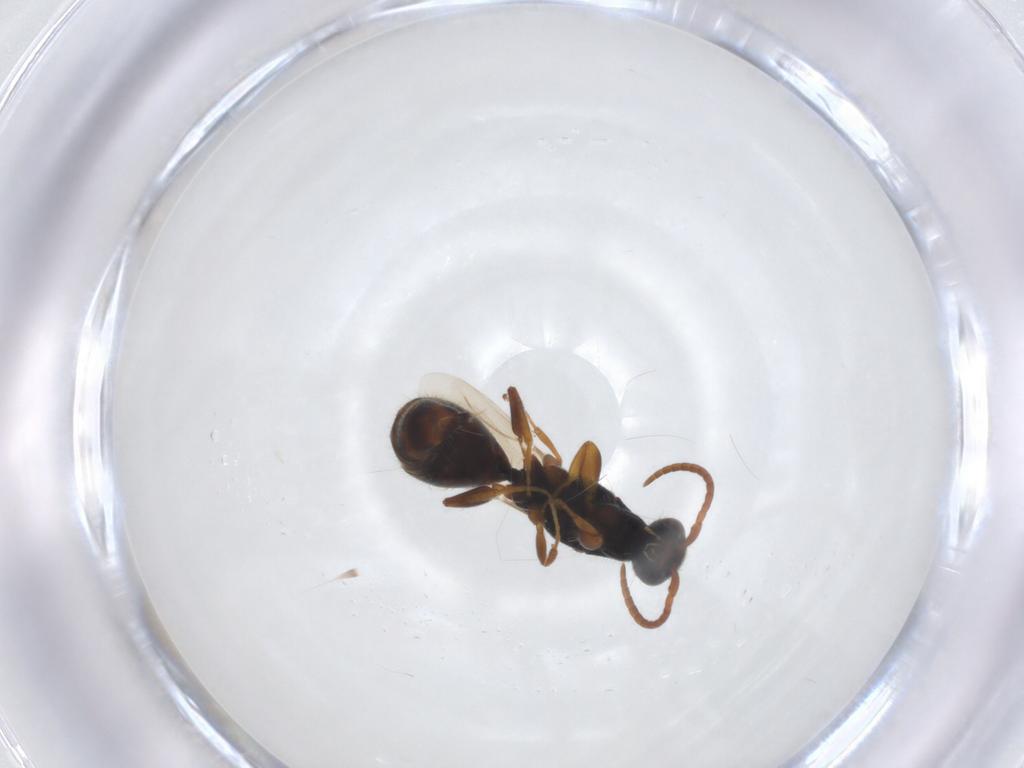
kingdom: Animalia
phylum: Arthropoda
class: Insecta
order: Hymenoptera
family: Bethylidae
